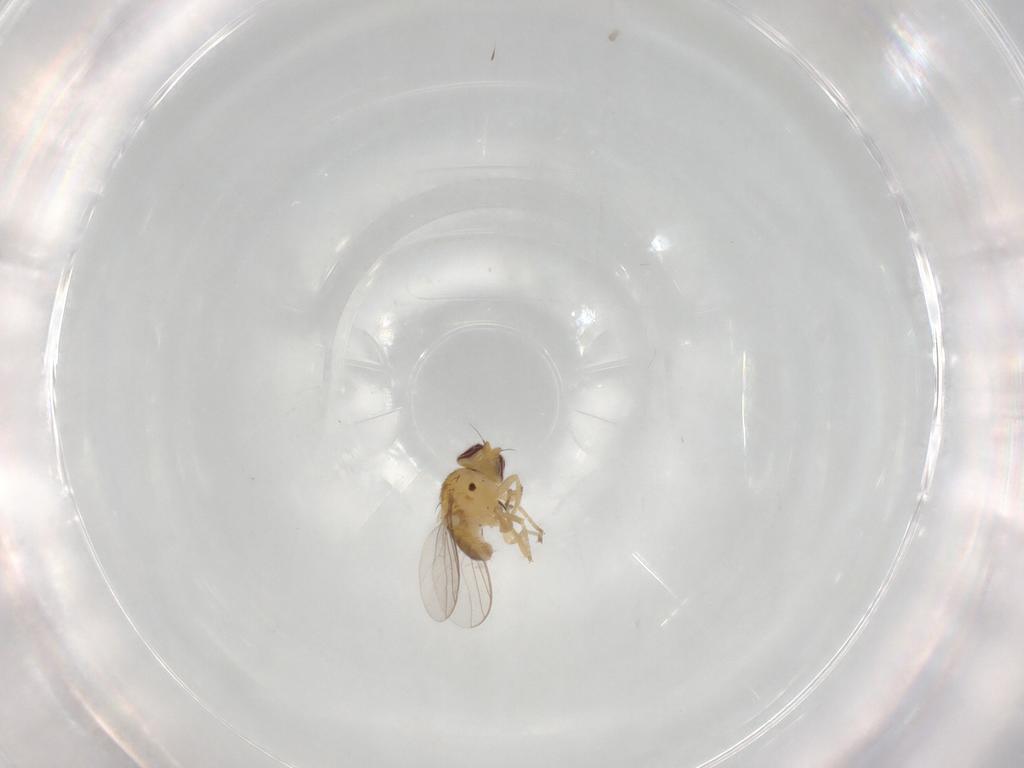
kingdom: Animalia
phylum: Arthropoda
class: Insecta
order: Diptera
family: Chloropidae
